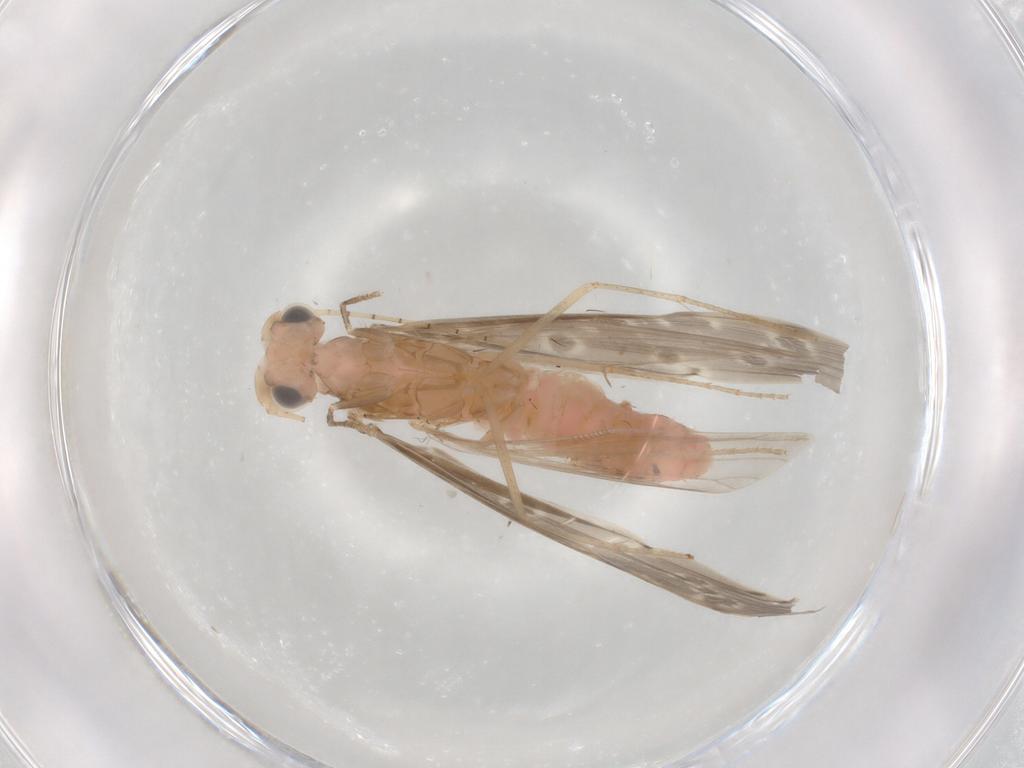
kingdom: Animalia
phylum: Arthropoda
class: Insecta
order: Trichoptera
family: Leptoceridae
